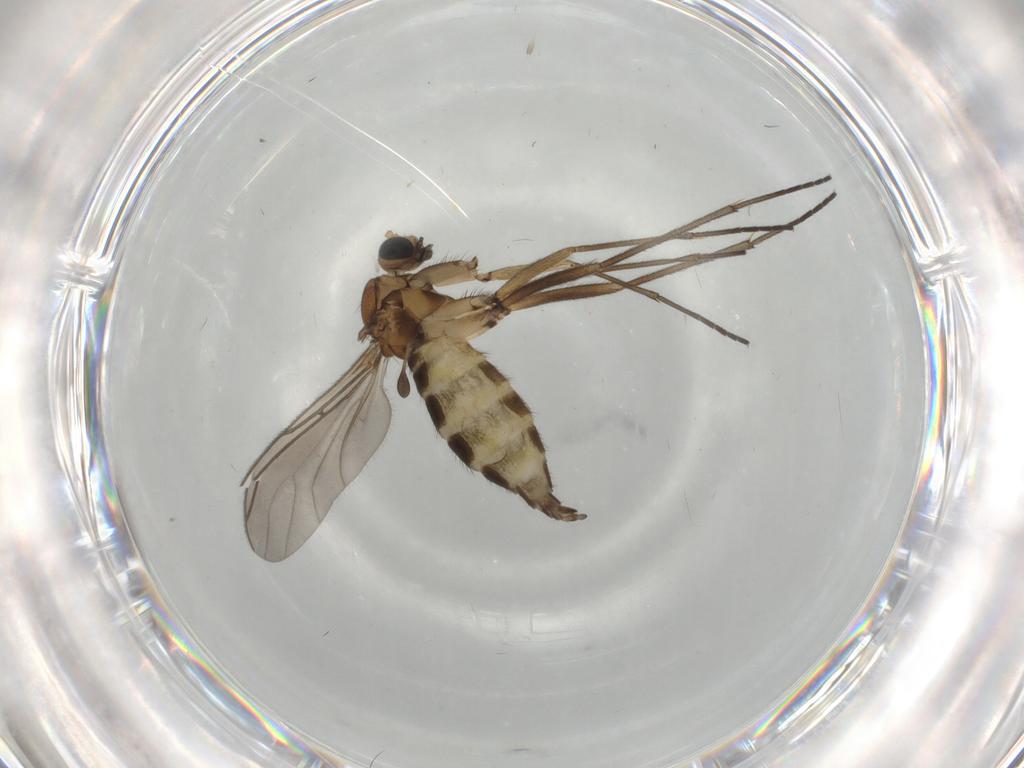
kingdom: Animalia
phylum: Arthropoda
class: Insecta
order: Diptera
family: Sciaridae
